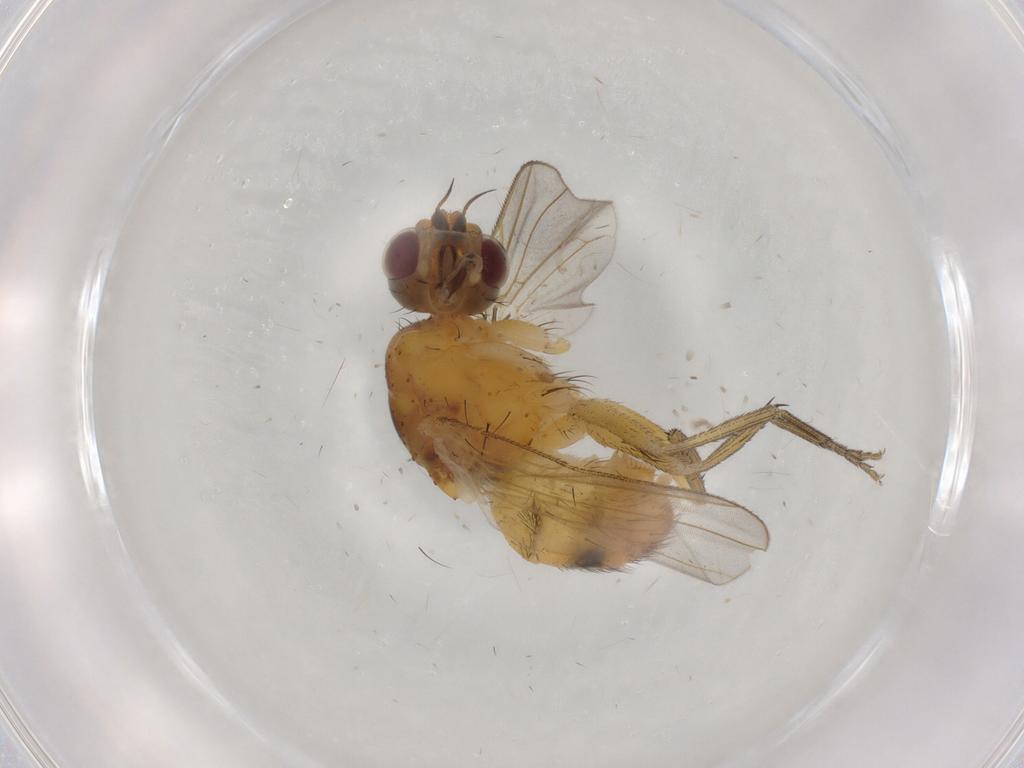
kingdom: Animalia
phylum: Arthropoda
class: Insecta
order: Diptera
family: Muscidae
